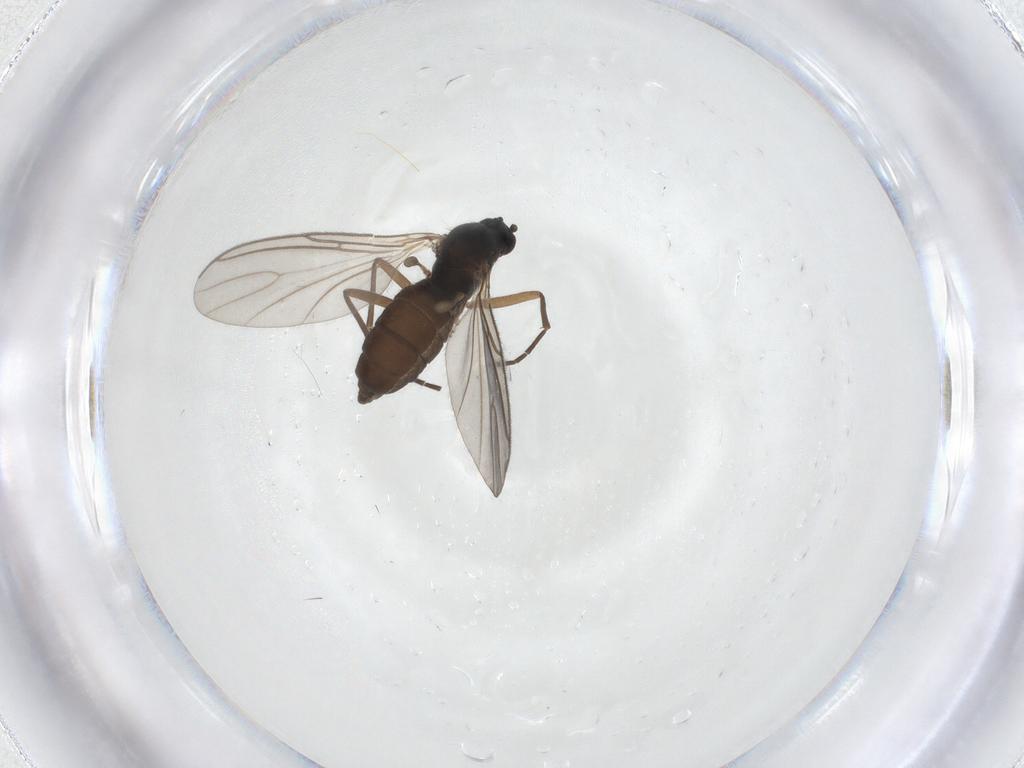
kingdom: Animalia
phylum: Arthropoda
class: Insecta
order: Diptera
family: Sciaridae
